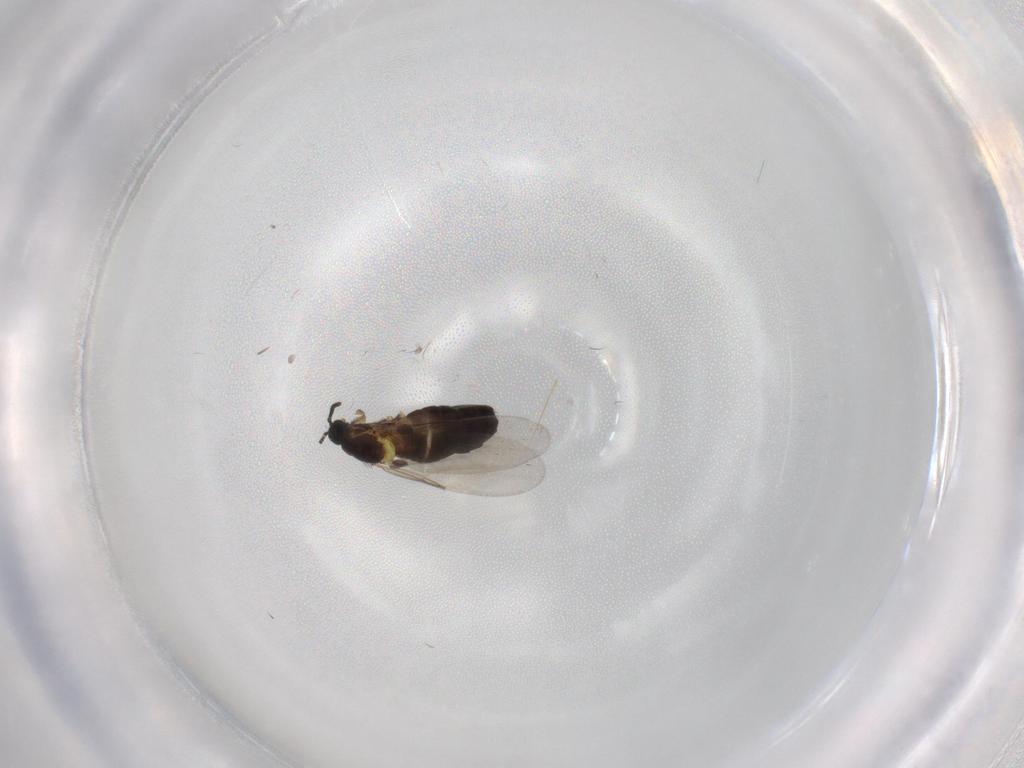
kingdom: Animalia
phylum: Arthropoda
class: Insecta
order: Diptera
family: Scatopsidae
